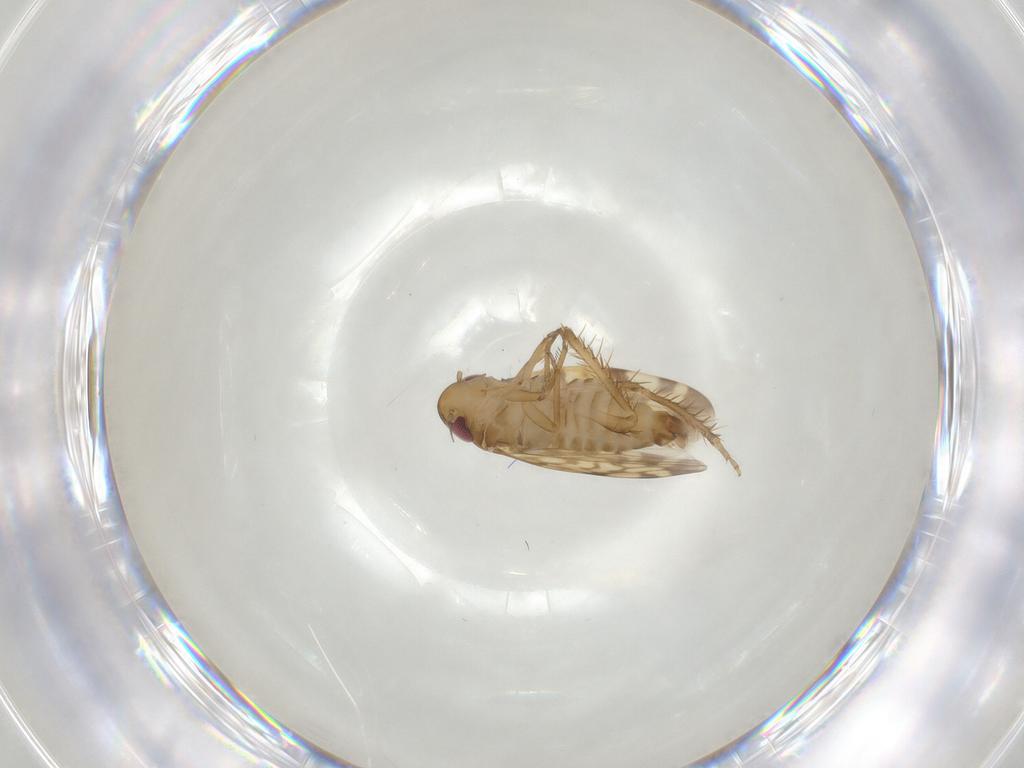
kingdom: Animalia
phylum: Arthropoda
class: Insecta
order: Hemiptera
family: Cicadellidae
